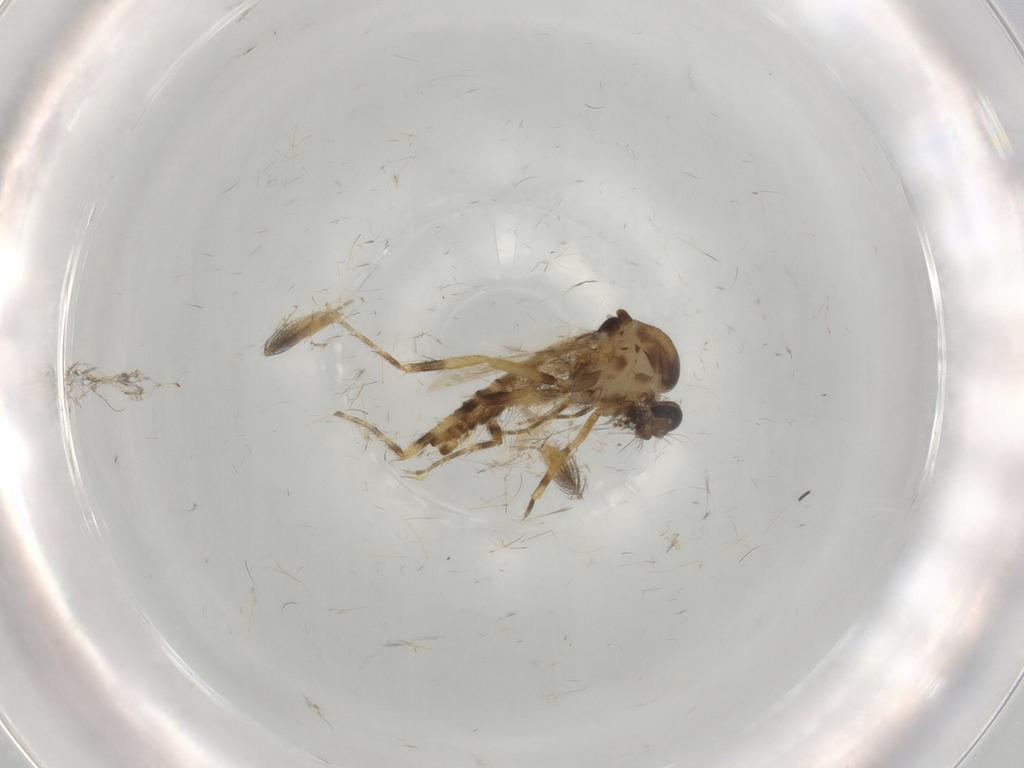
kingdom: Animalia
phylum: Arthropoda
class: Insecta
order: Diptera
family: Ceratopogonidae
